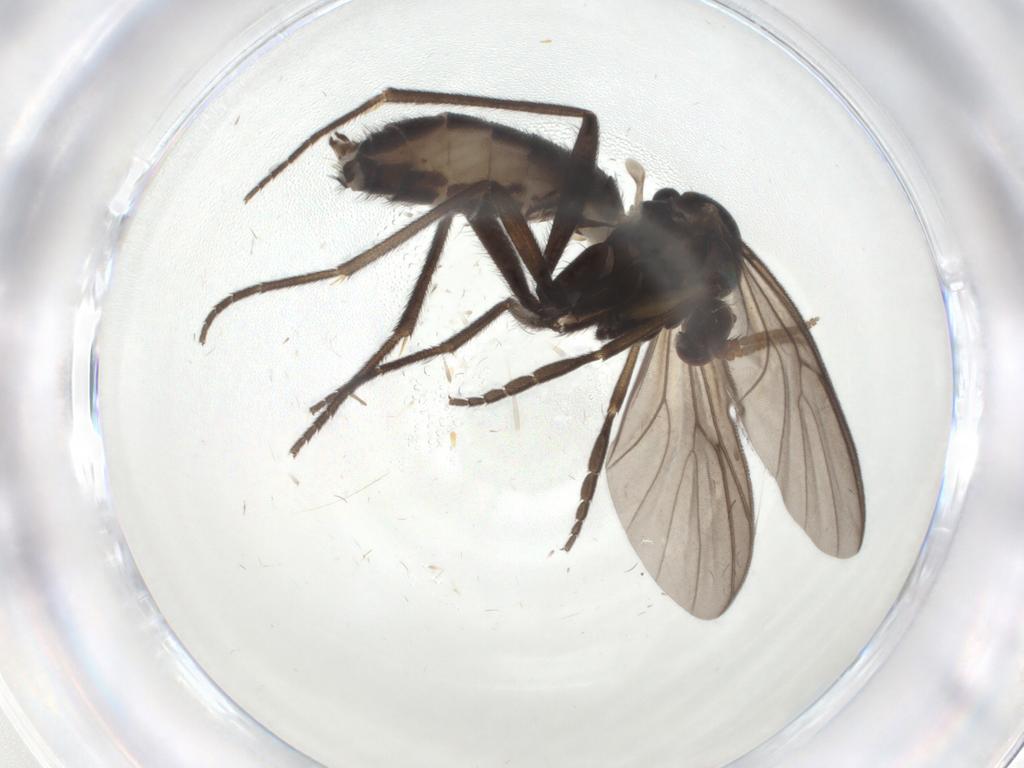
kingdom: Animalia
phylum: Arthropoda
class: Insecta
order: Diptera
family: Mycetophilidae
